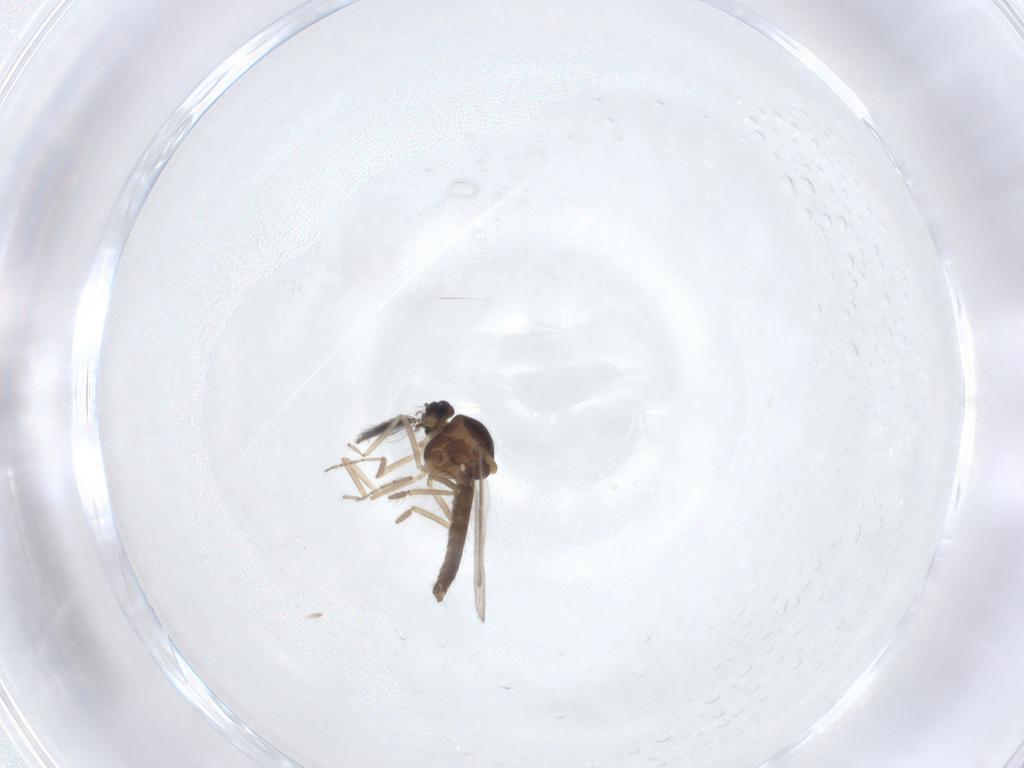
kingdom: Animalia
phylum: Arthropoda
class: Insecta
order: Diptera
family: Ceratopogonidae
